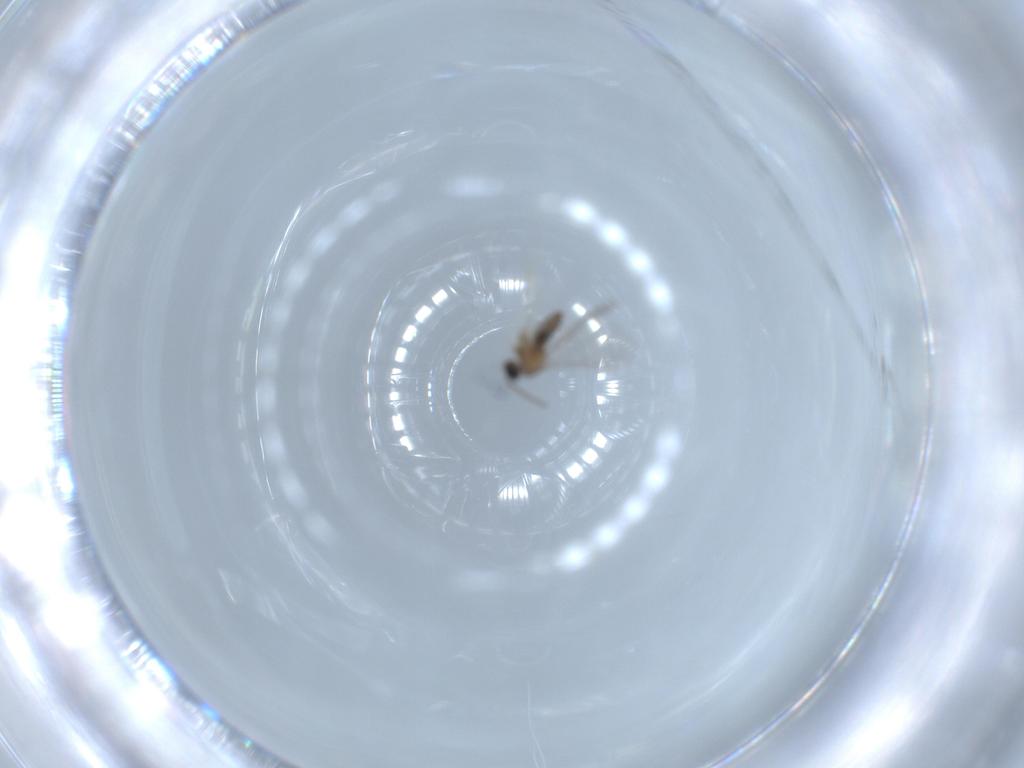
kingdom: Animalia
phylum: Arthropoda
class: Insecta
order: Diptera
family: Cecidomyiidae
